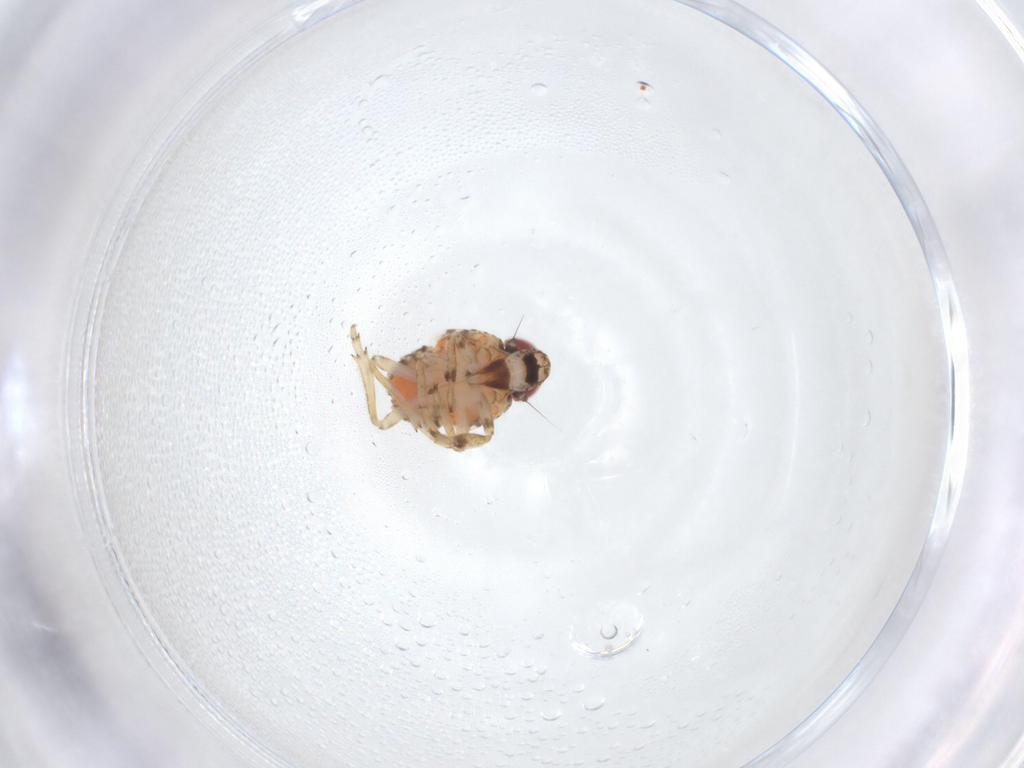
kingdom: Animalia
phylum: Arthropoda
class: Insecta
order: Hemiptera
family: Issidae
